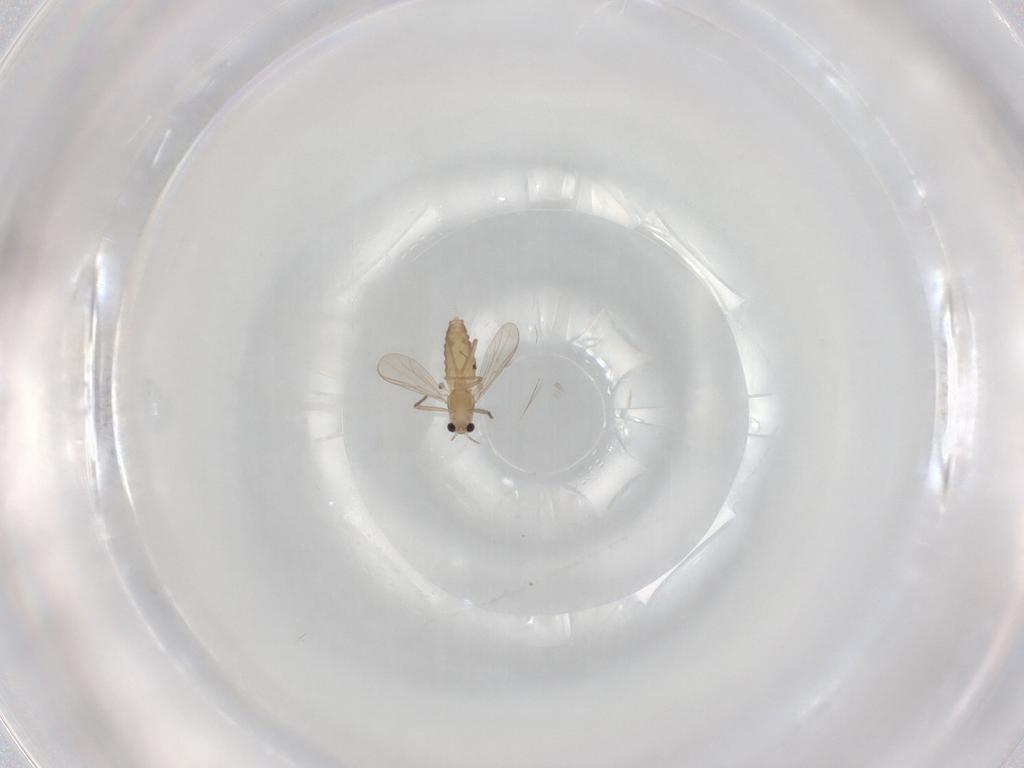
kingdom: Animalia
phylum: Arthropoda
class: Insecta
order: Diptera
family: Chironomidae
